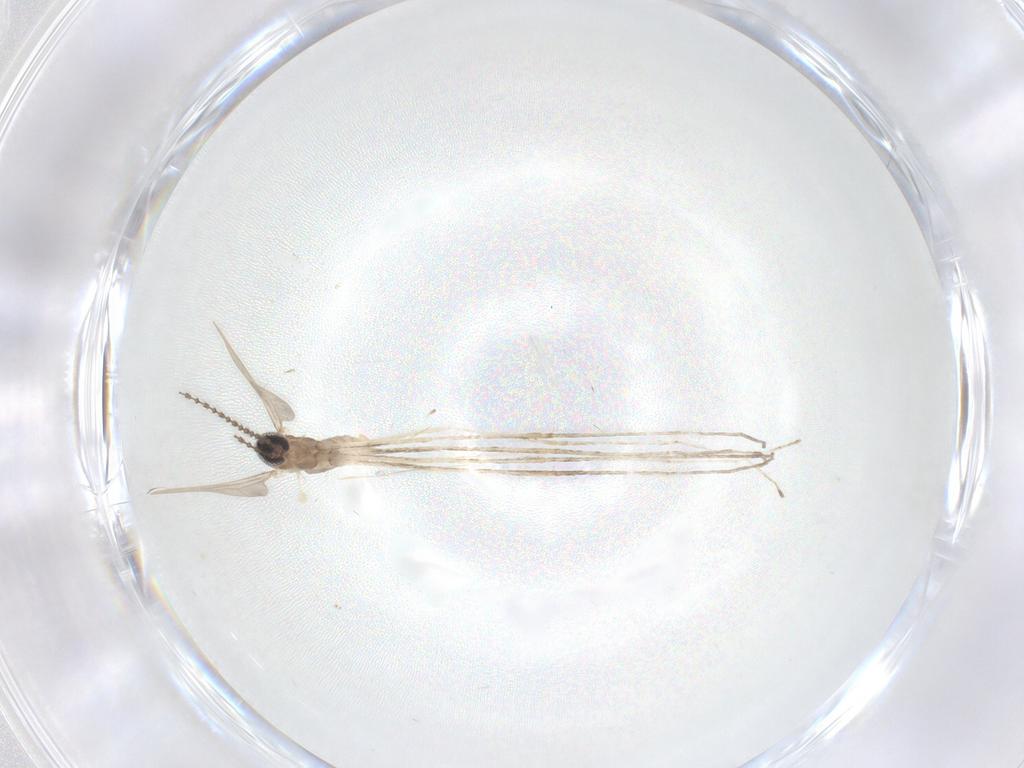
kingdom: Animalia
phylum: Arthropoda
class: Insecta
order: Diptera
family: Cecidomyiidae
